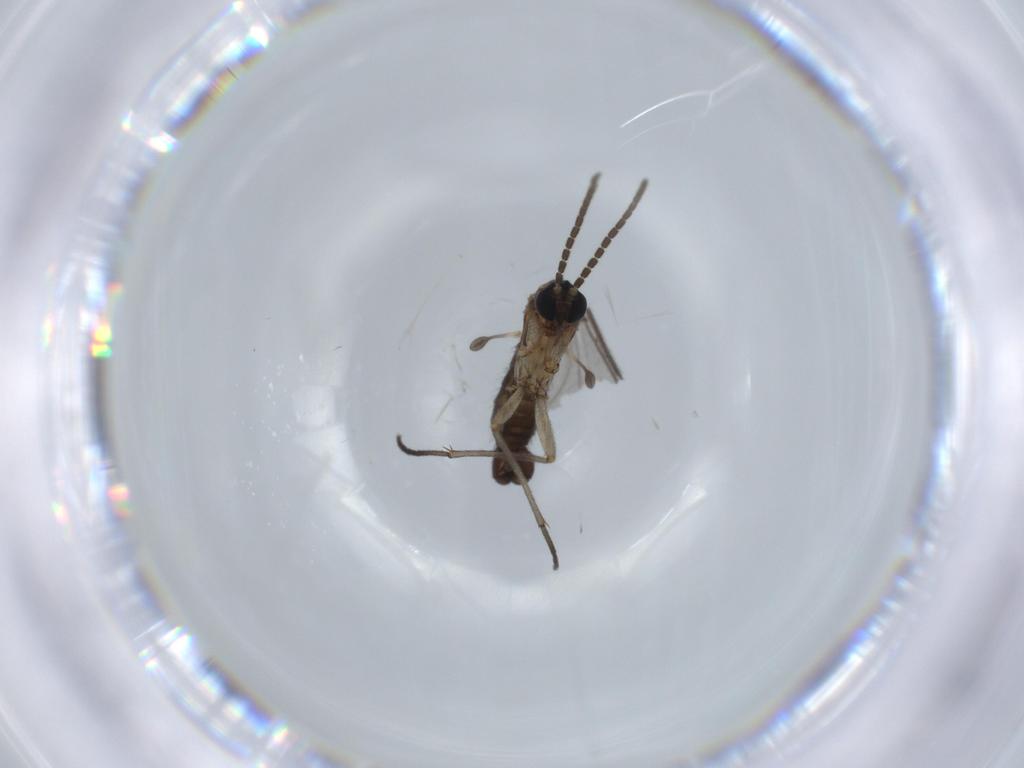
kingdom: Animalia
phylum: Arthropoda
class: Insecta
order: Diptera
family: Sciaridae
